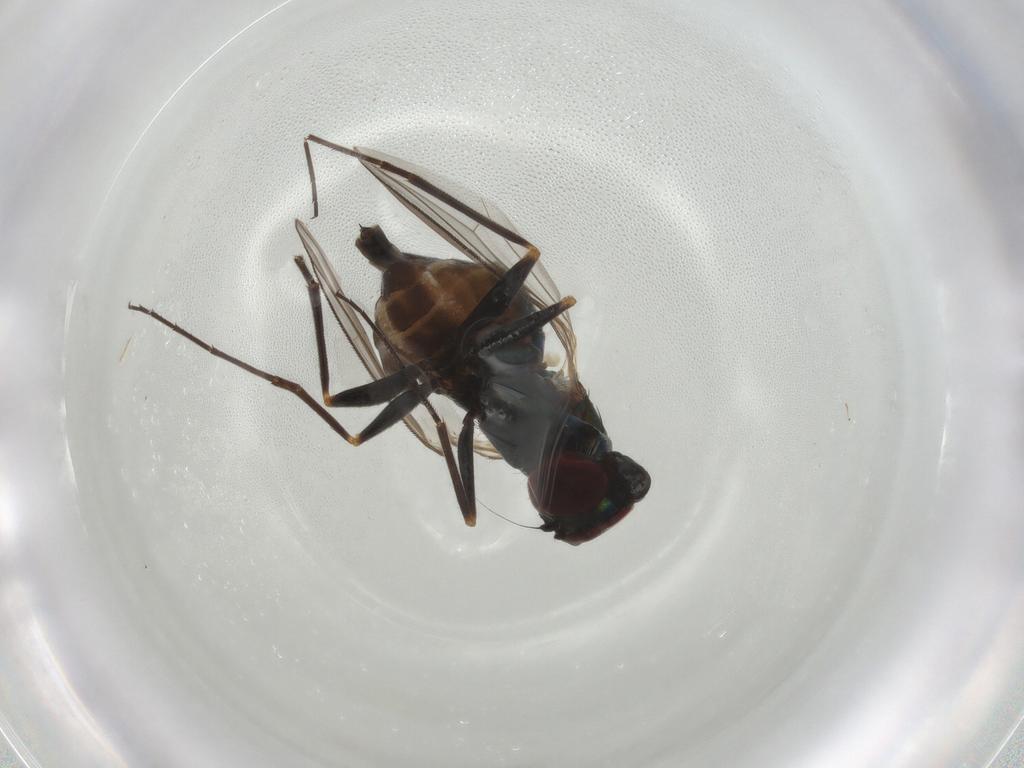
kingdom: Animalia
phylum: Arthropoda
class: Insecta
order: Diptera
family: Dolichopodidae
